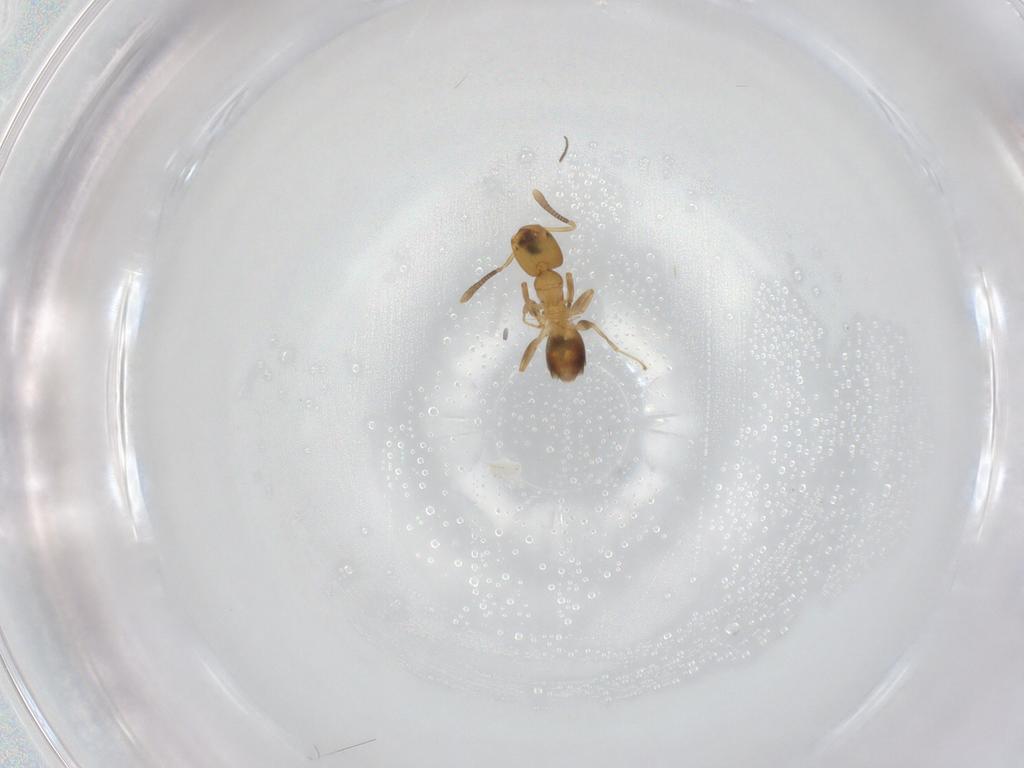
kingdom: Animalia
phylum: Arthropoda
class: Insecta
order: Hymenoptera
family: Formicidae
